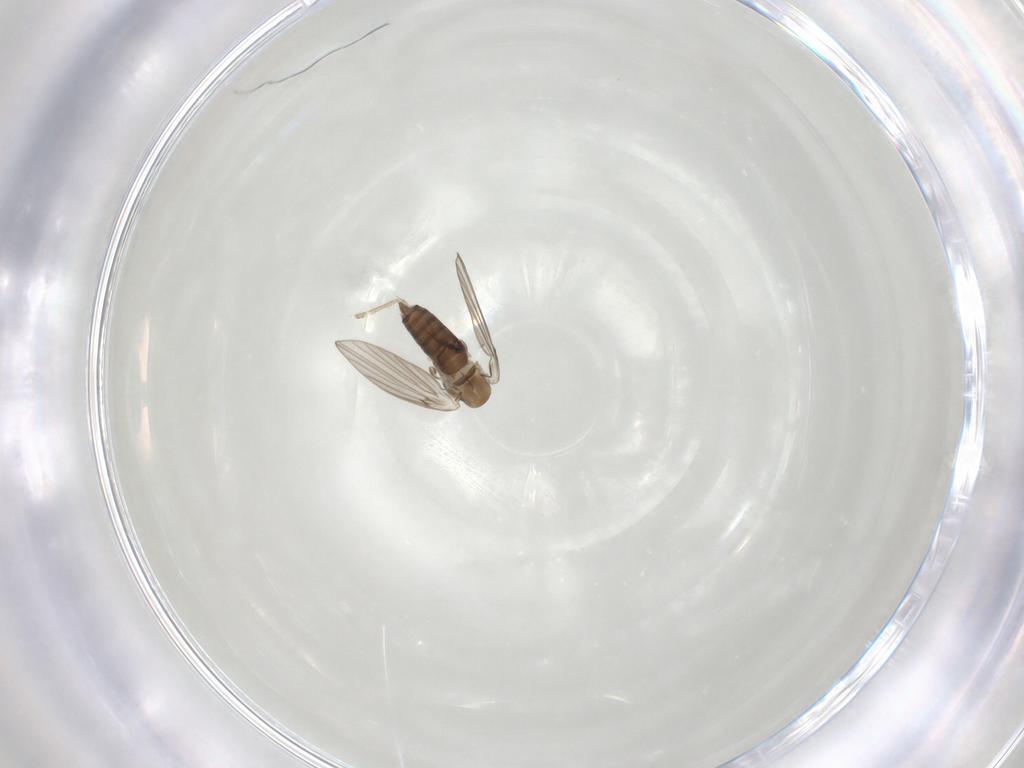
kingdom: Animalia
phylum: Arthropoda
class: Insecta
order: Diptera
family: Psychodidae
